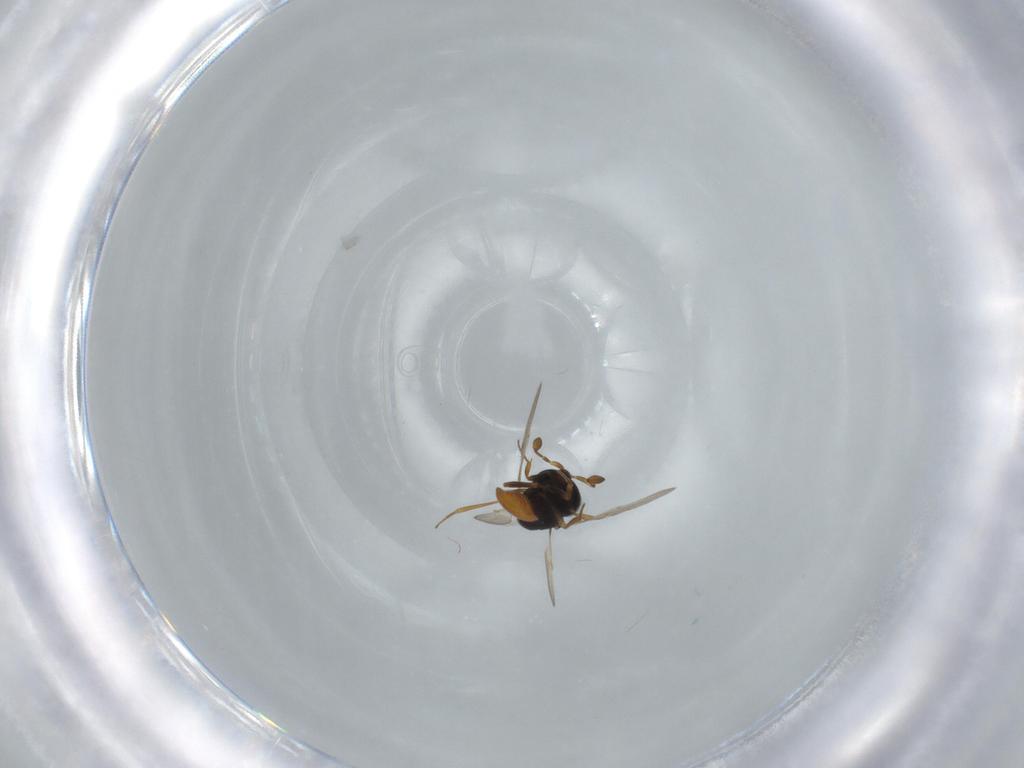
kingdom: Animalia
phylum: Arthropoda
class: Insecta
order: Hymenoptera
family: Scelionidae
